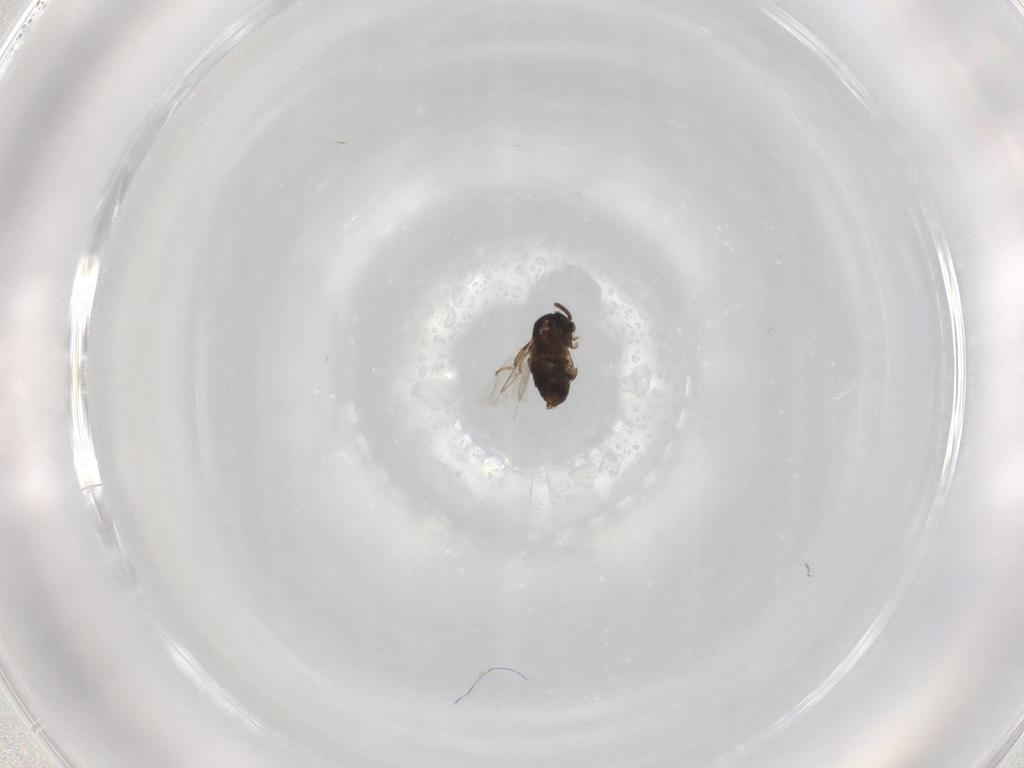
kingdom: Animalia
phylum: Arthropoda
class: Insecta
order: Diptera
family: Scatopsidae
